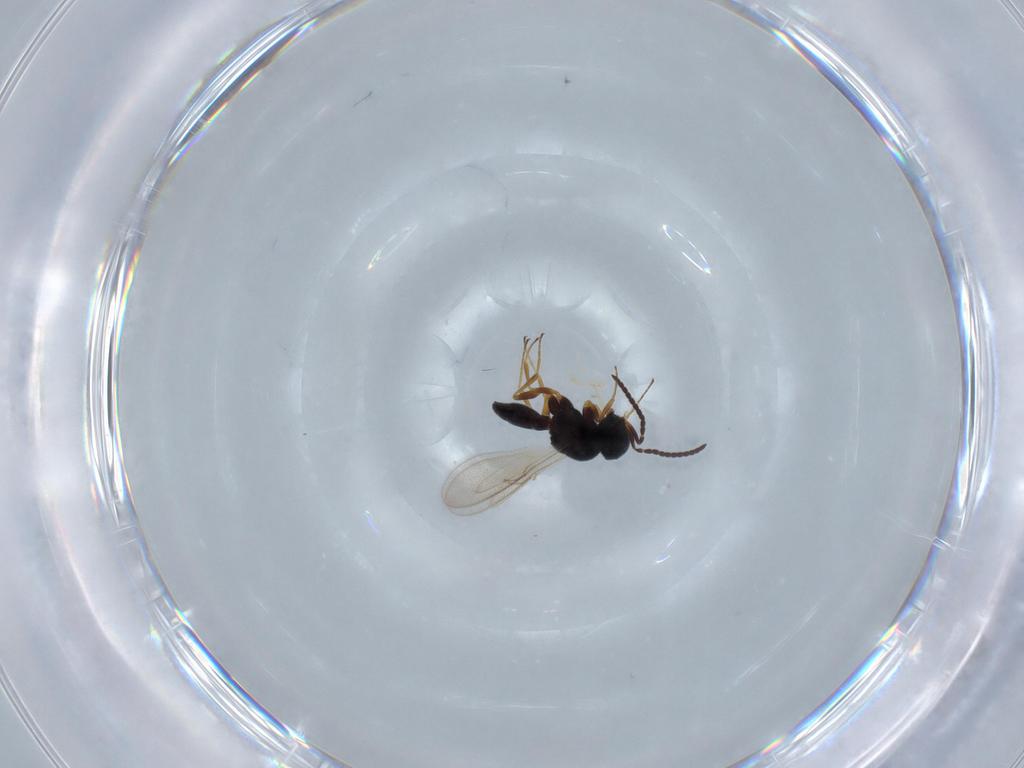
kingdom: Animalia
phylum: Arthropoda
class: Insecta
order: Hymenoptera
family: Scelionidae
